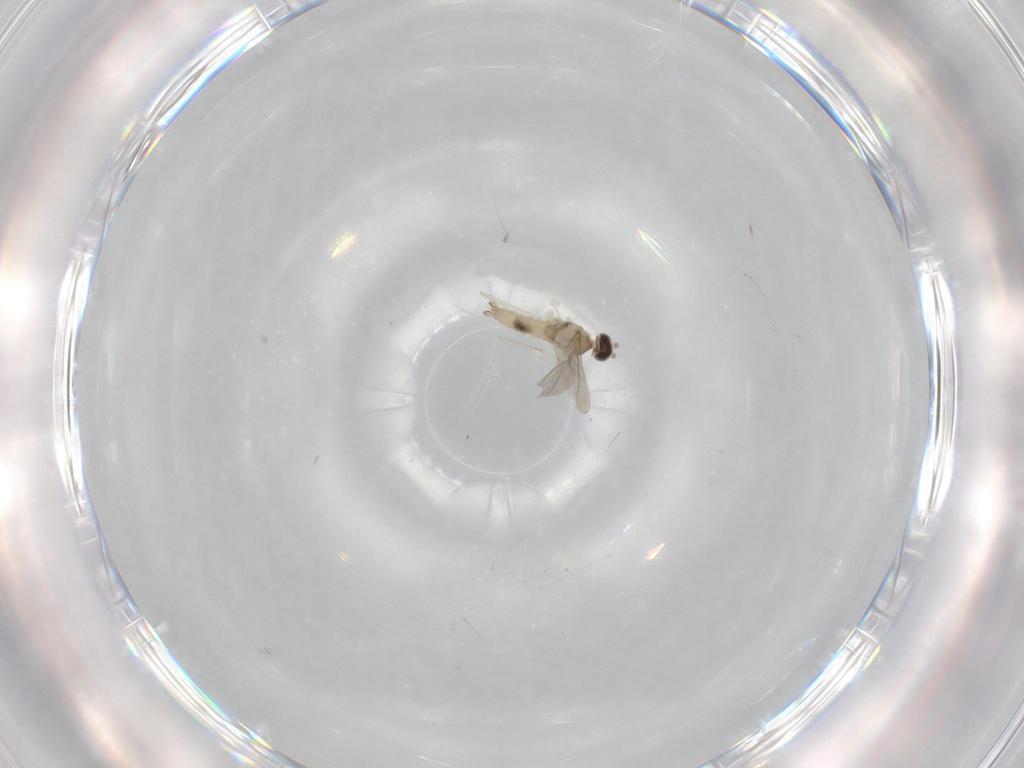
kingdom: Animalia
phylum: Arthropoda
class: Insecta
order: Diptera
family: Cecidomyiidae
